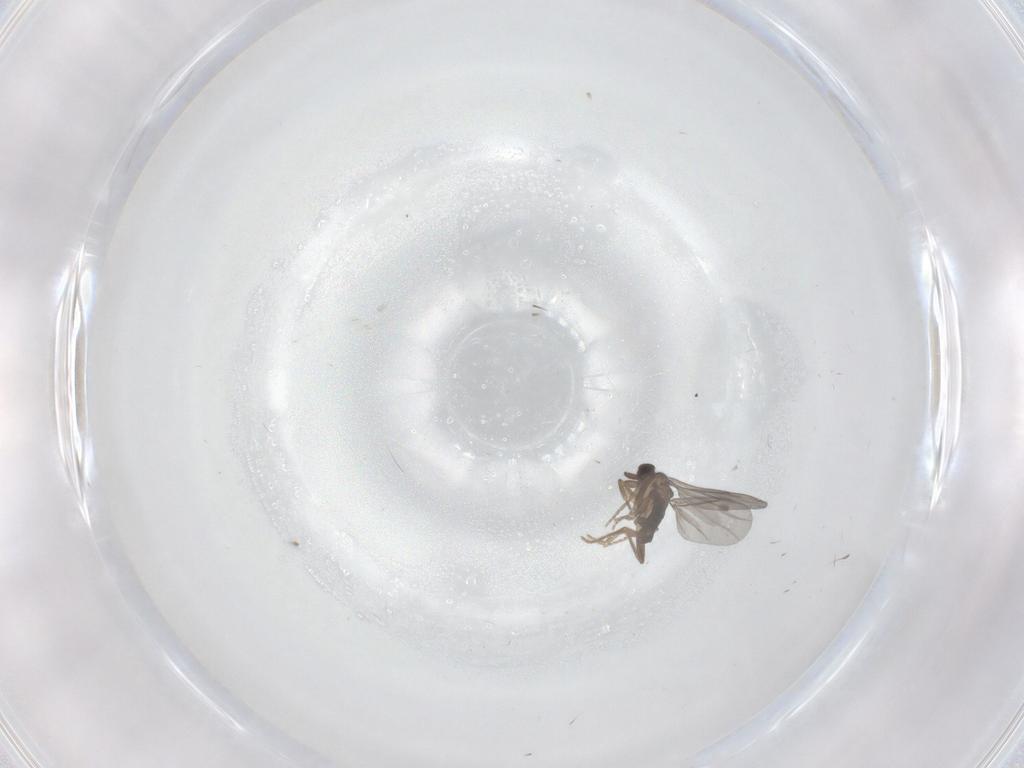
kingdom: Animalia
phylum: Arthropoda
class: Insecta
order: Diptera
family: Cecidomyiidae
